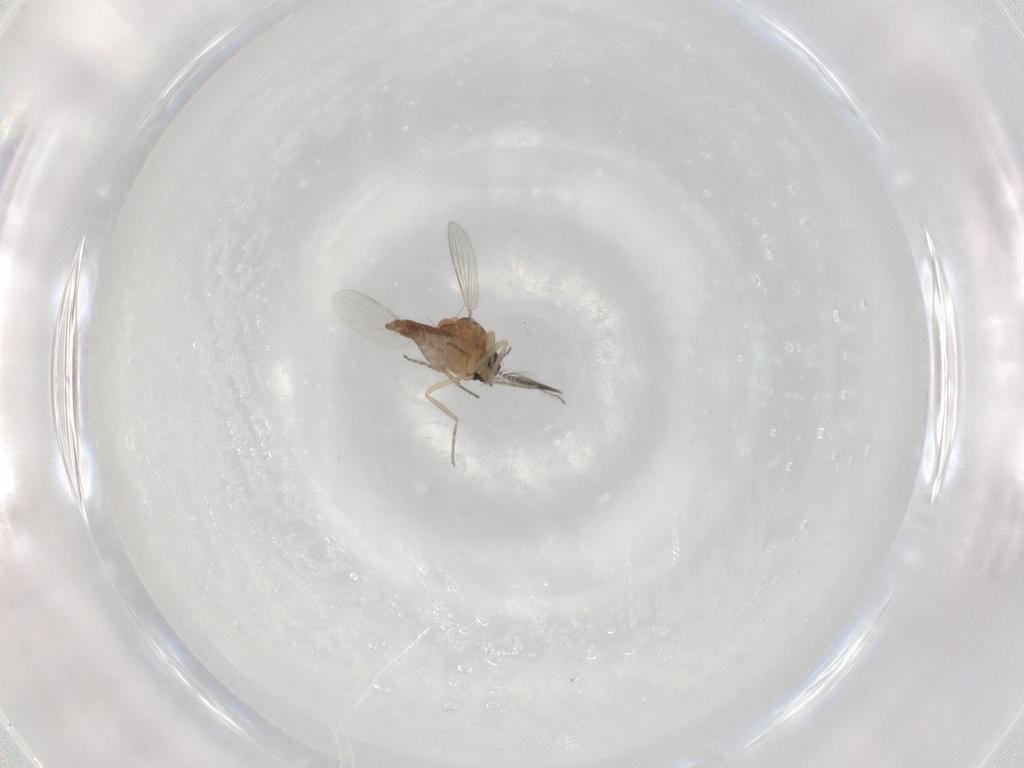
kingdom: Animalia
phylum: Arthropoda
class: Insecta
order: Diptera
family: Ceratopogonidae
